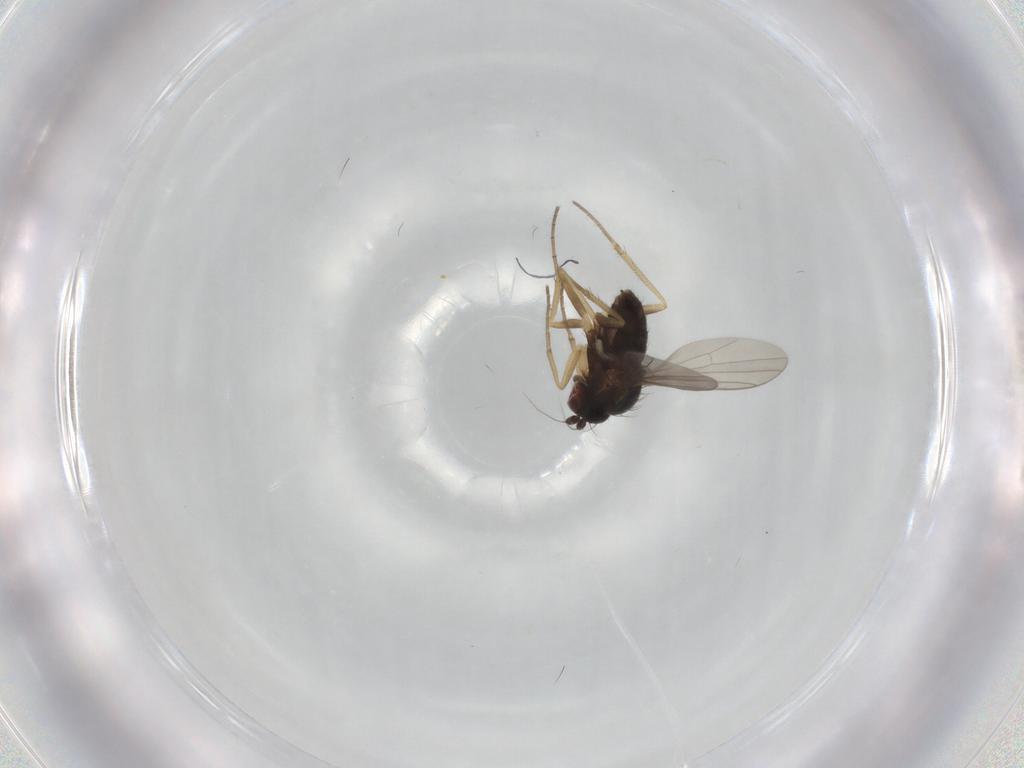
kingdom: Animalia
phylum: Arthropoda
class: Insecta
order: Diptera
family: Dolichopodidae
